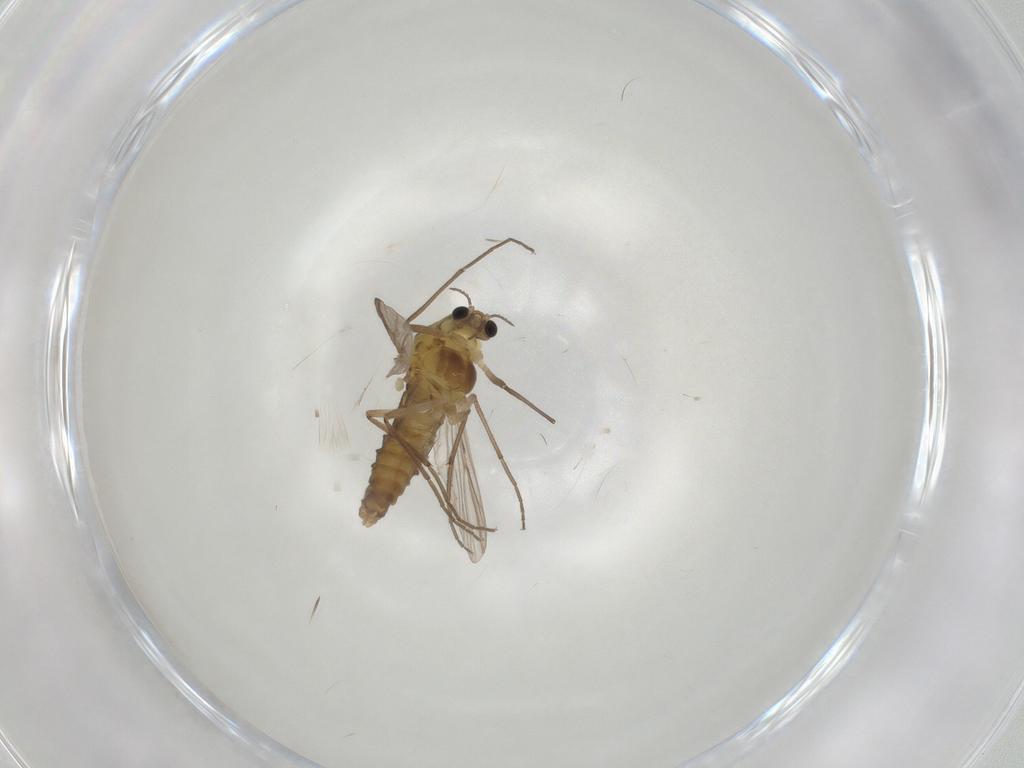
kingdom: Animalia
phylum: Arthropoda
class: Insecta
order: Diptera
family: Chironomidae
